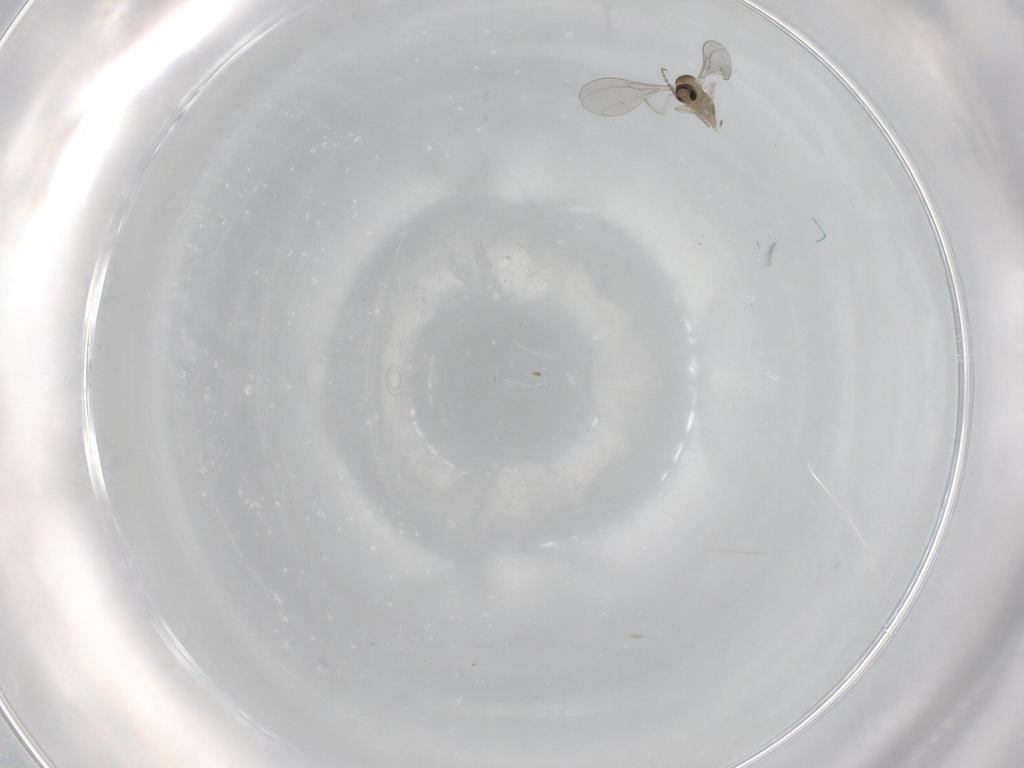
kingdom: Animalia
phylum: Arthropoda
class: Insecta
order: Diptera
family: Cecidomyiidae
